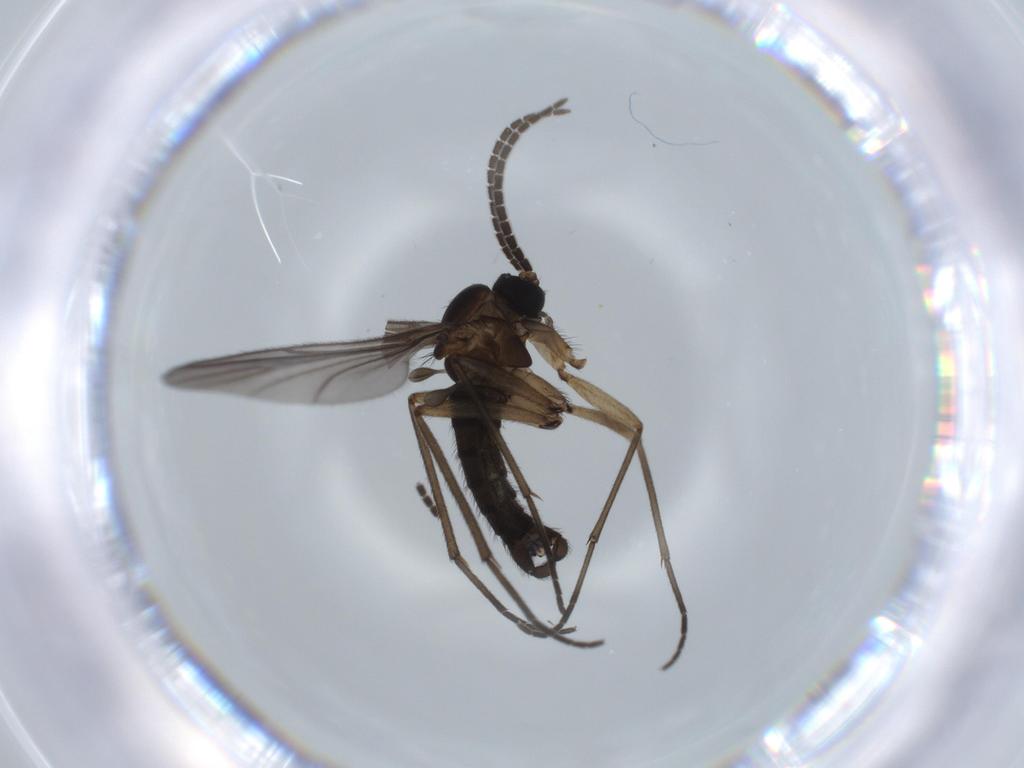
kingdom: Animalia
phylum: Arthropoda
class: Insecta
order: Diptera
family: Sciaridae
